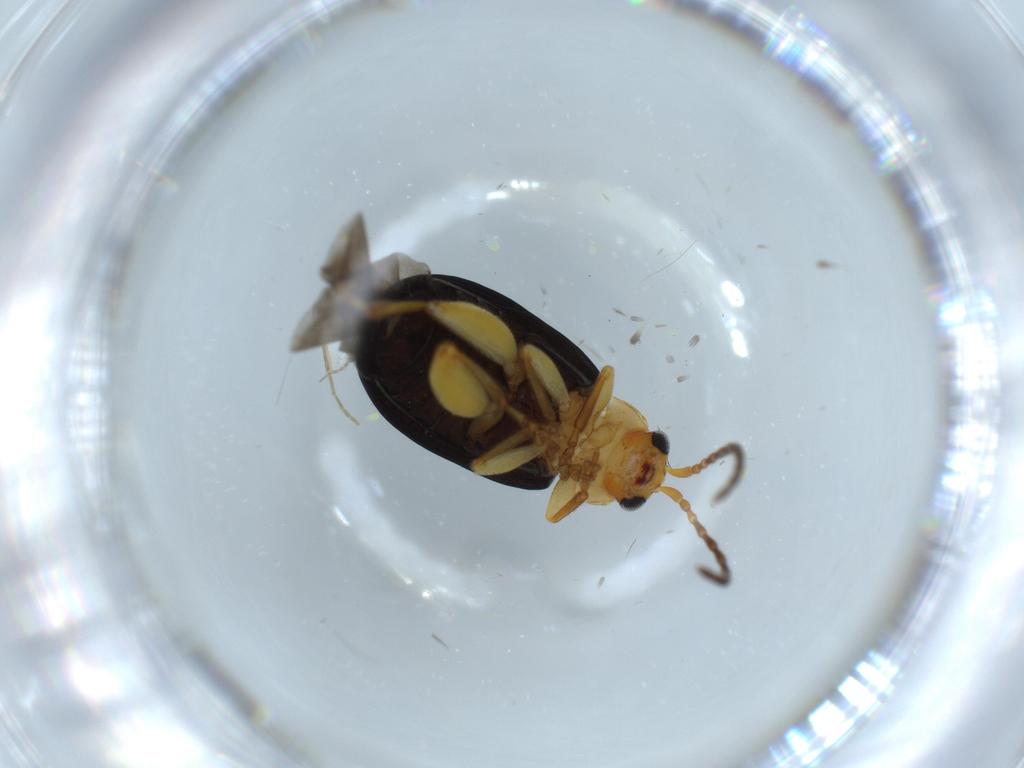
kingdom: Animalia
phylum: Arthropoda
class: Insecta
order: Coleoptera
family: Chrysomelidae
